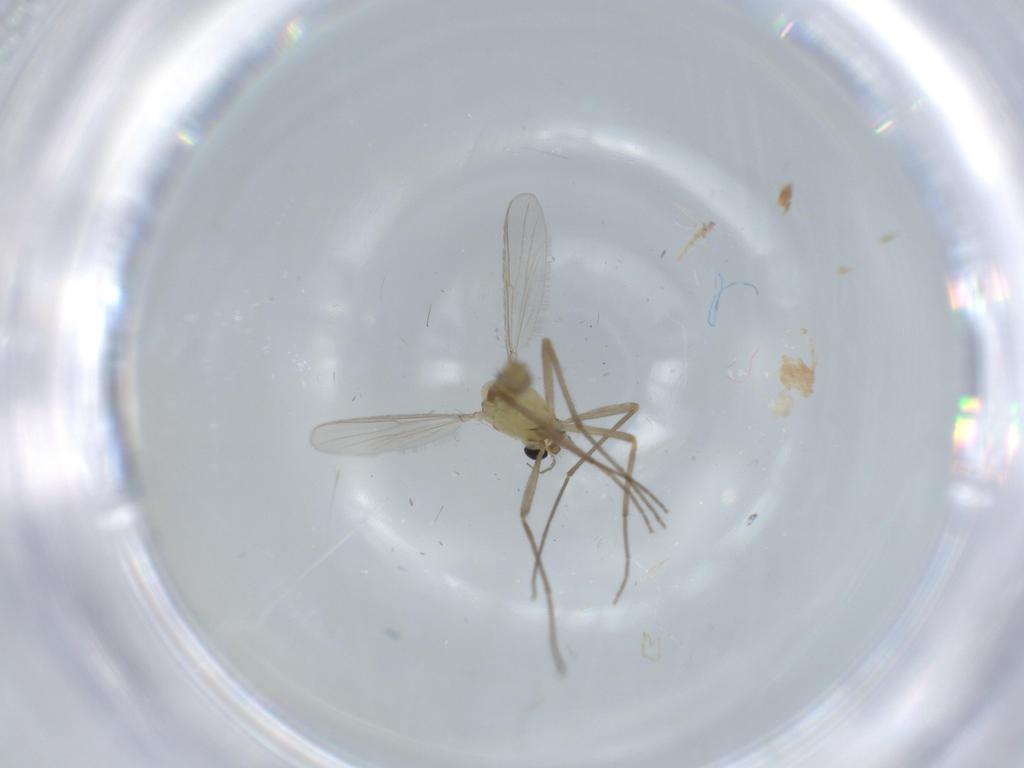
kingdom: Animalia
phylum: Arthropoda
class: Insecta
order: Diptera
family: Chironomidae
